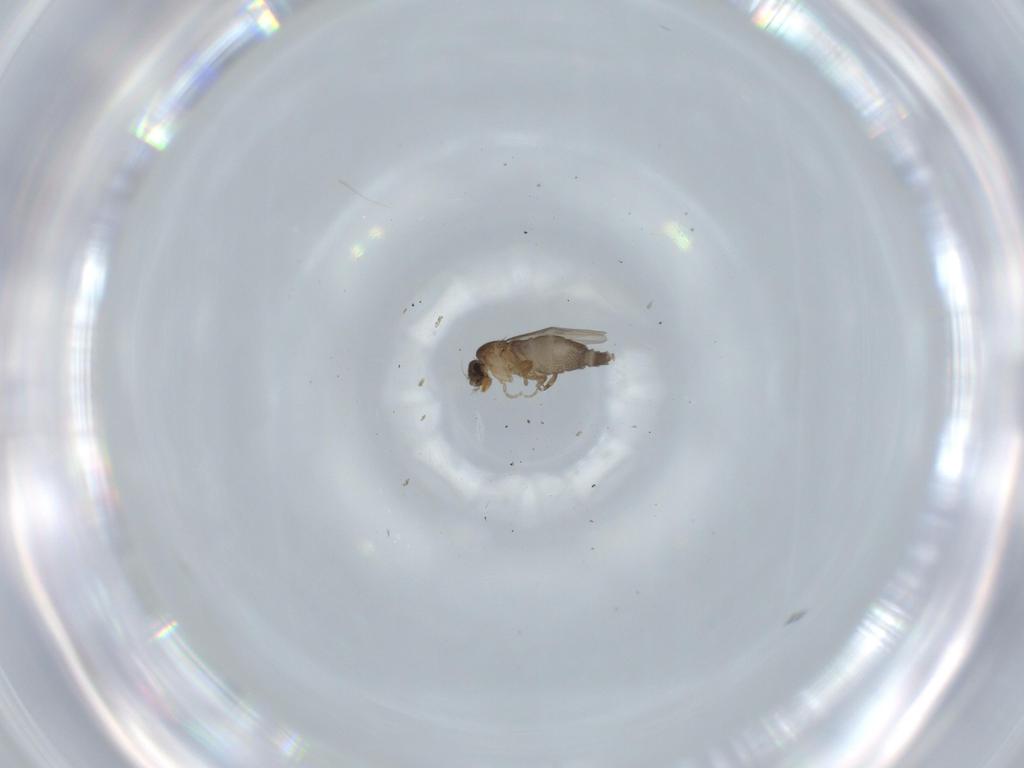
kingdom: Animalia
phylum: Arthropoda
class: Insecta
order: Diptera
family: Phoridae
